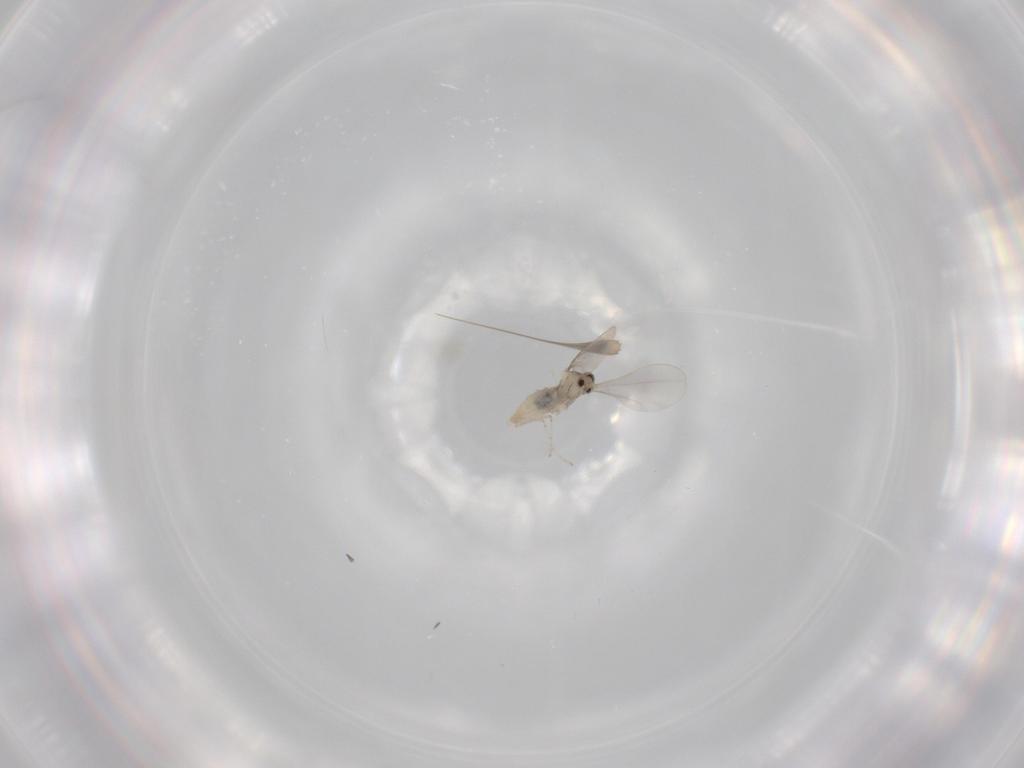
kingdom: Animalia
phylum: Arthropoda
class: Insecta
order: Diptera
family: Cecidomyiidae
